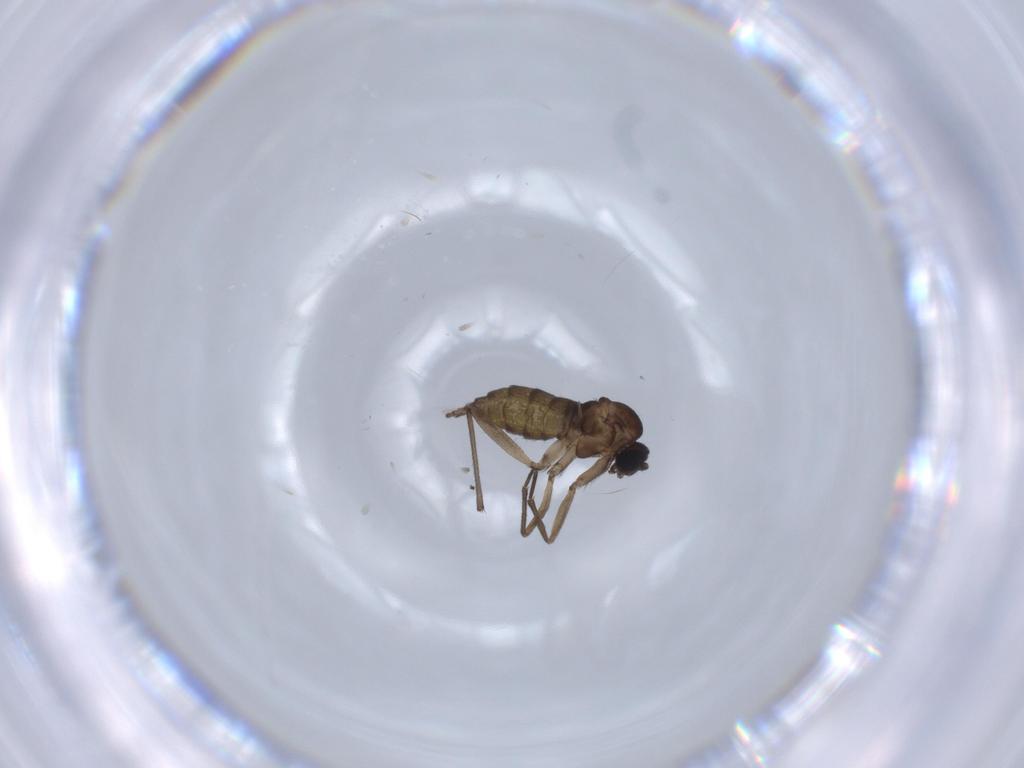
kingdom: Animalia
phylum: Arthropoda
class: Insecta
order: Diptera
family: Sciaridae
